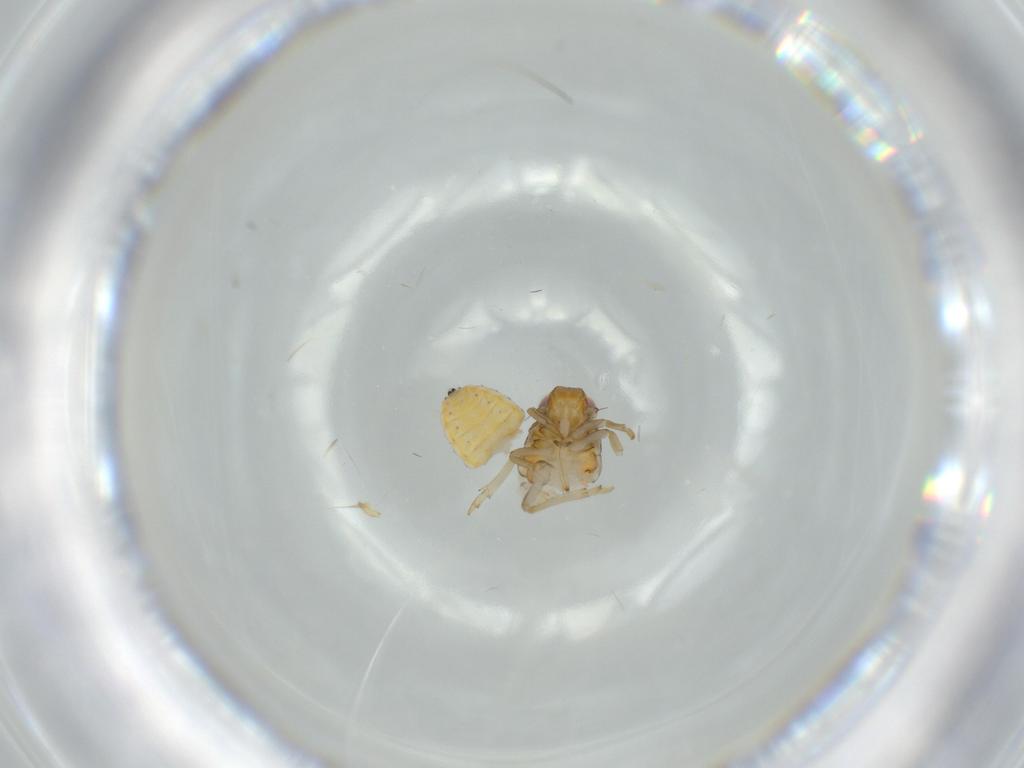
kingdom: Animalia
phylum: Arthropoda
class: Insecta
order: Hemiptera
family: Issidae
